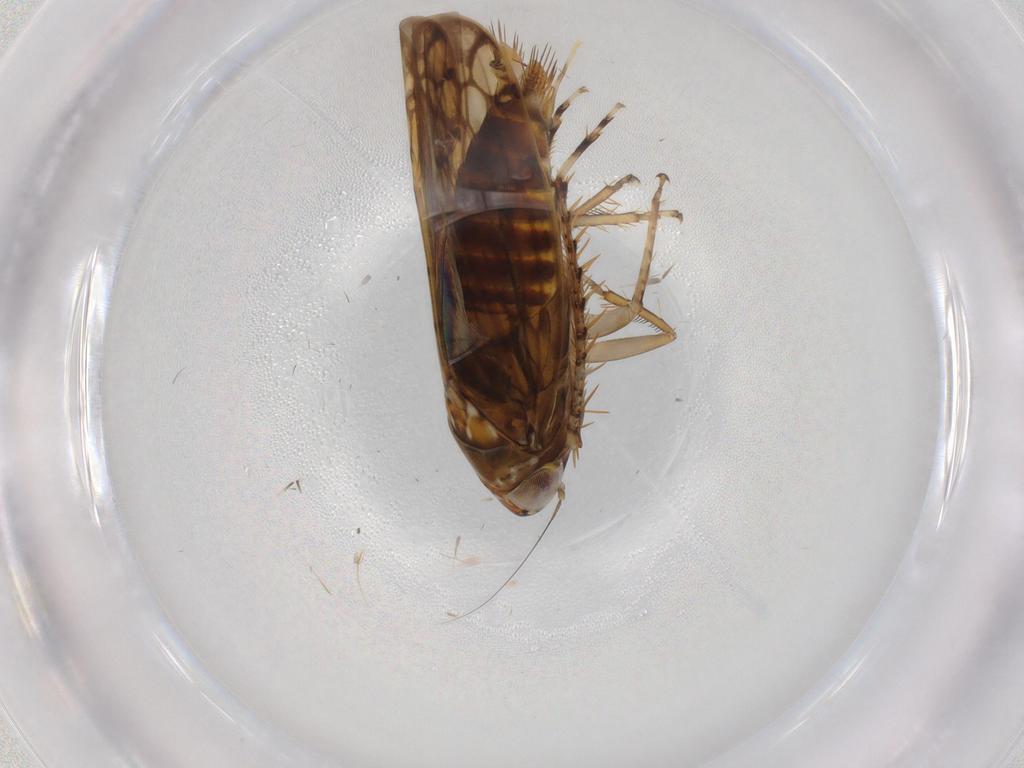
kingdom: Animalia
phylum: Arthropoda
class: Insecta
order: Hemiptera
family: Cicadellidae
